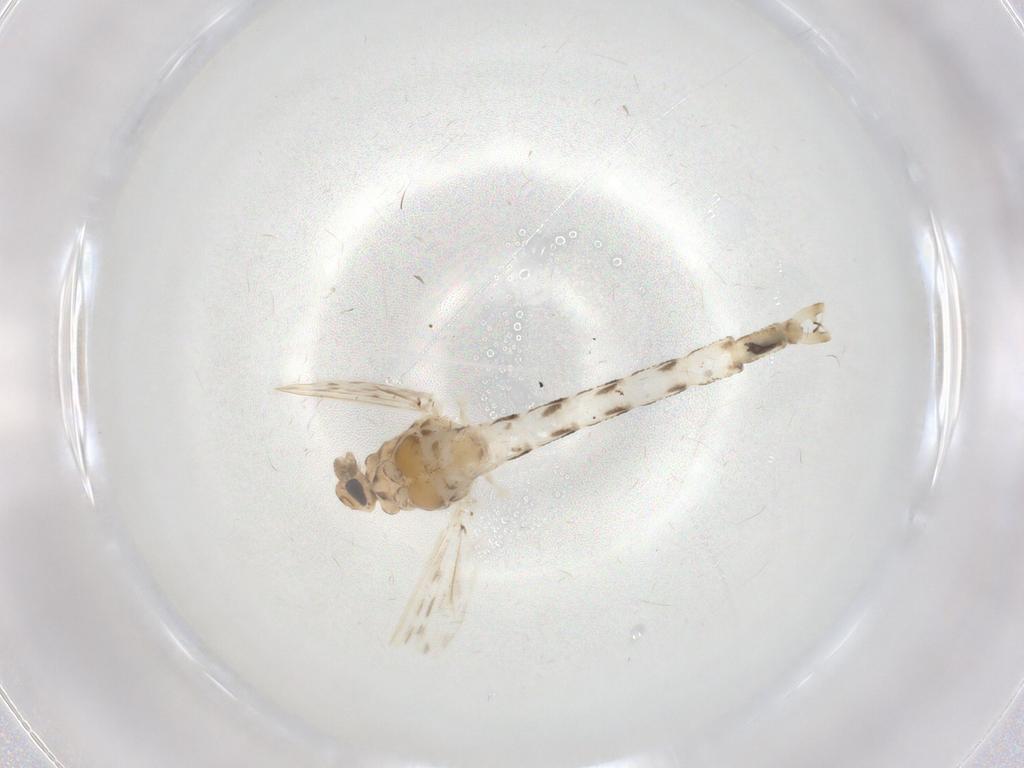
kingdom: Animalia
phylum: Arthropoda
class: Insecta
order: Diptera
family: Chaoboridae
